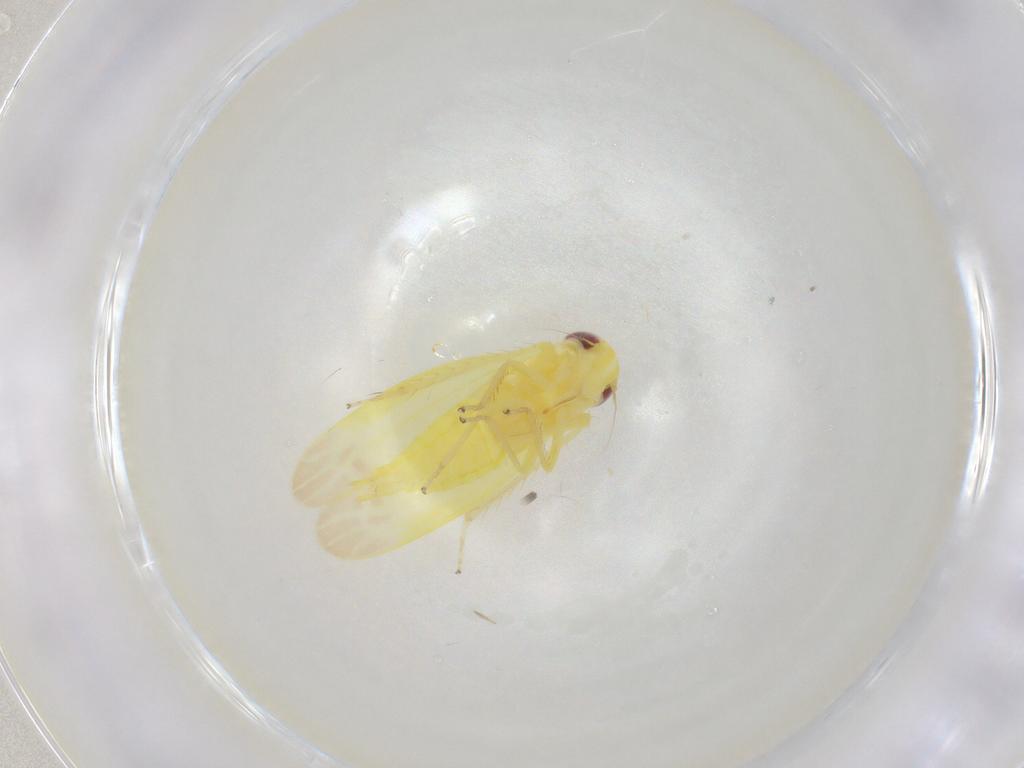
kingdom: Animalia
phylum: Arthropoda
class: Insecta
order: Hemiptera
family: Cicadellidae
